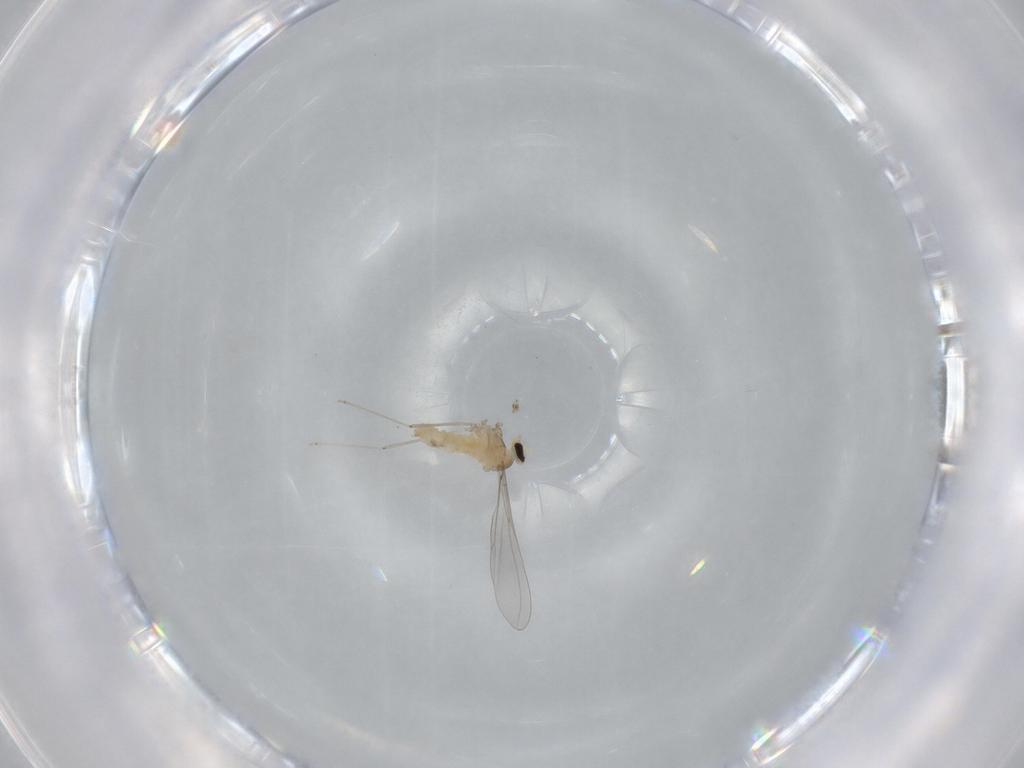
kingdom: Animalia
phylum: Arthropoda
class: Insecta
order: Diptera
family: Cecidomyiidae
